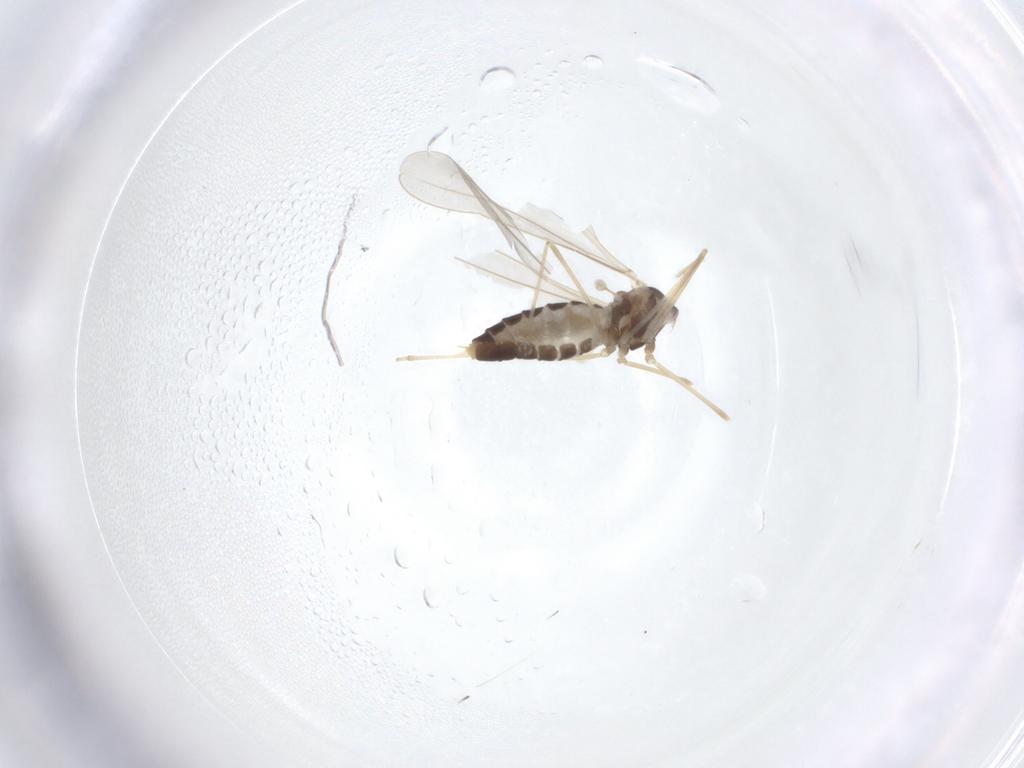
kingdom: Animalia
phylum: Arthropoda
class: Insecta
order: Diptera
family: Cecidomyiidae
